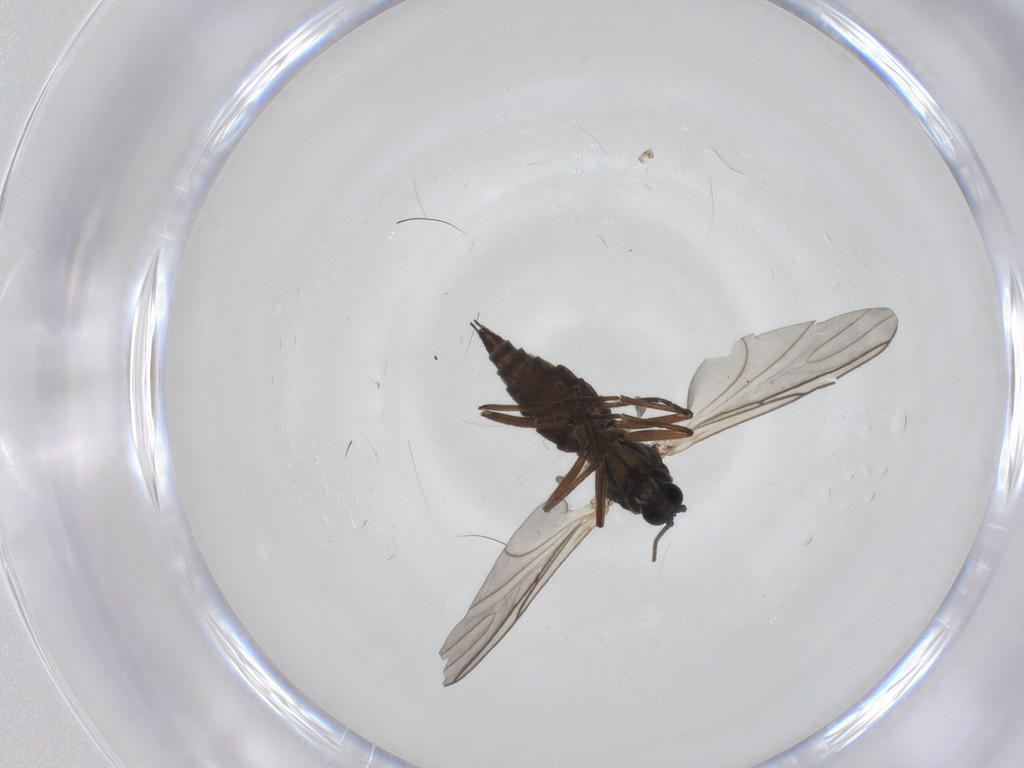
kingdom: Animalia
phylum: Arthropoda
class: Insecta
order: Diptera
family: Sciaridae
